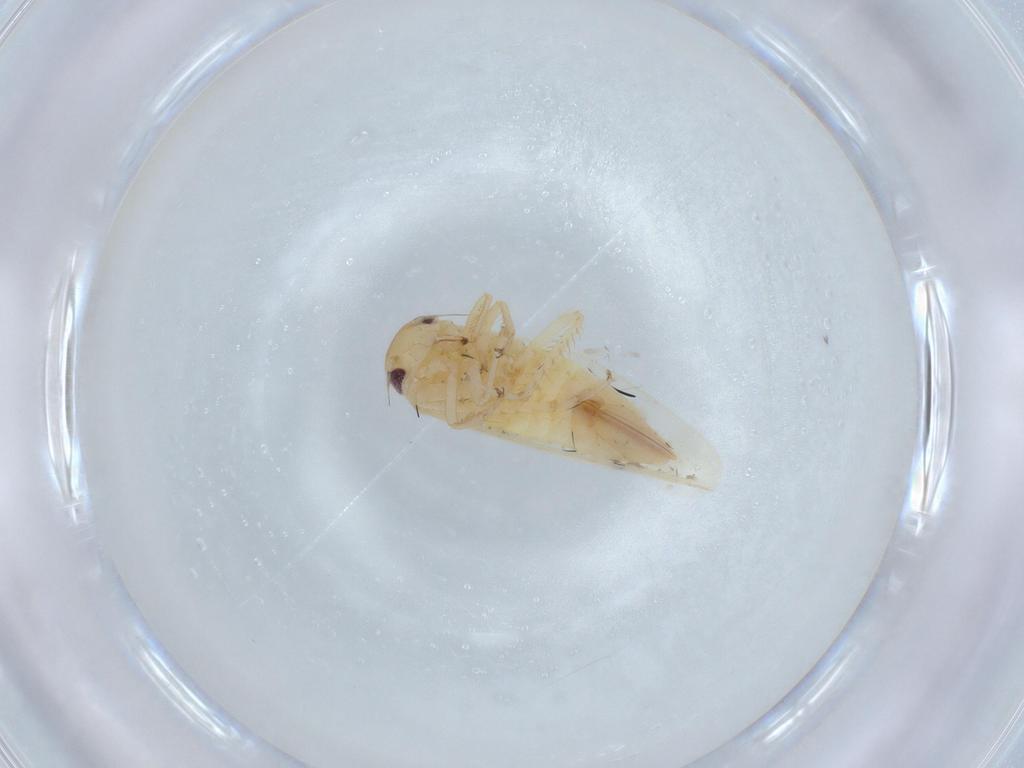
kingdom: Animalia
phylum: Arthropoda
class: Insecta
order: Hemiptera
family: Cicadellidae
